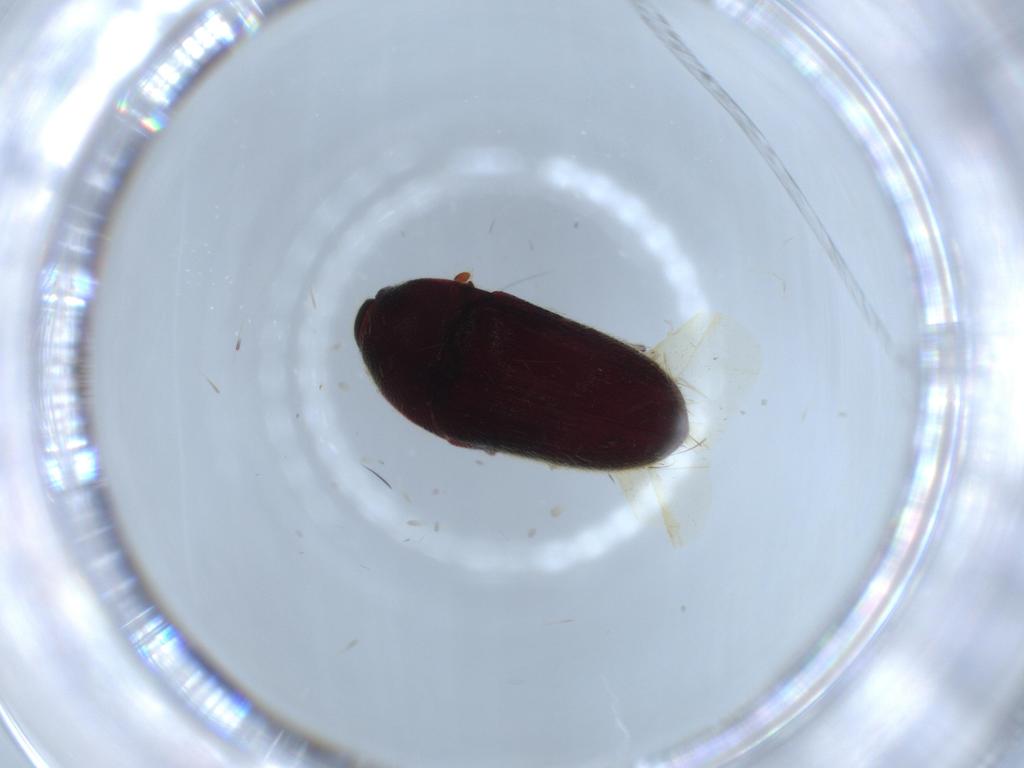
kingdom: Animalia
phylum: Arthropoda
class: Insecta
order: Coleoptera
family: Throscidae
